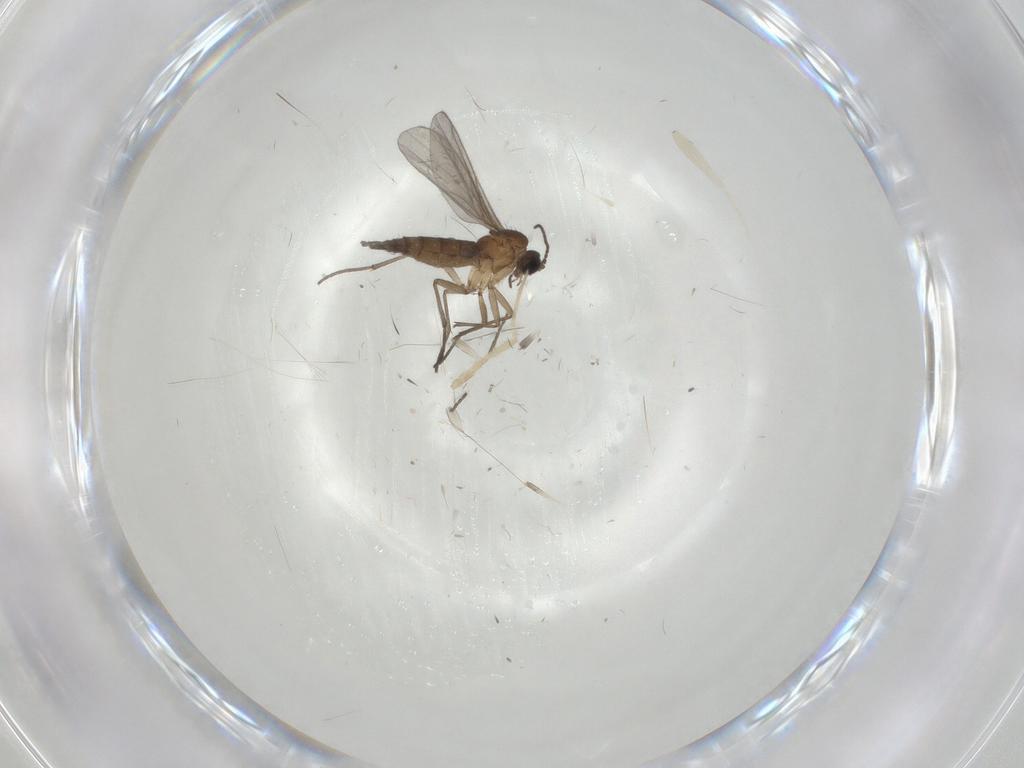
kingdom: Animalia
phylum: Arthropoda
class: Insecta
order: Diptera
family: Sciaridae
